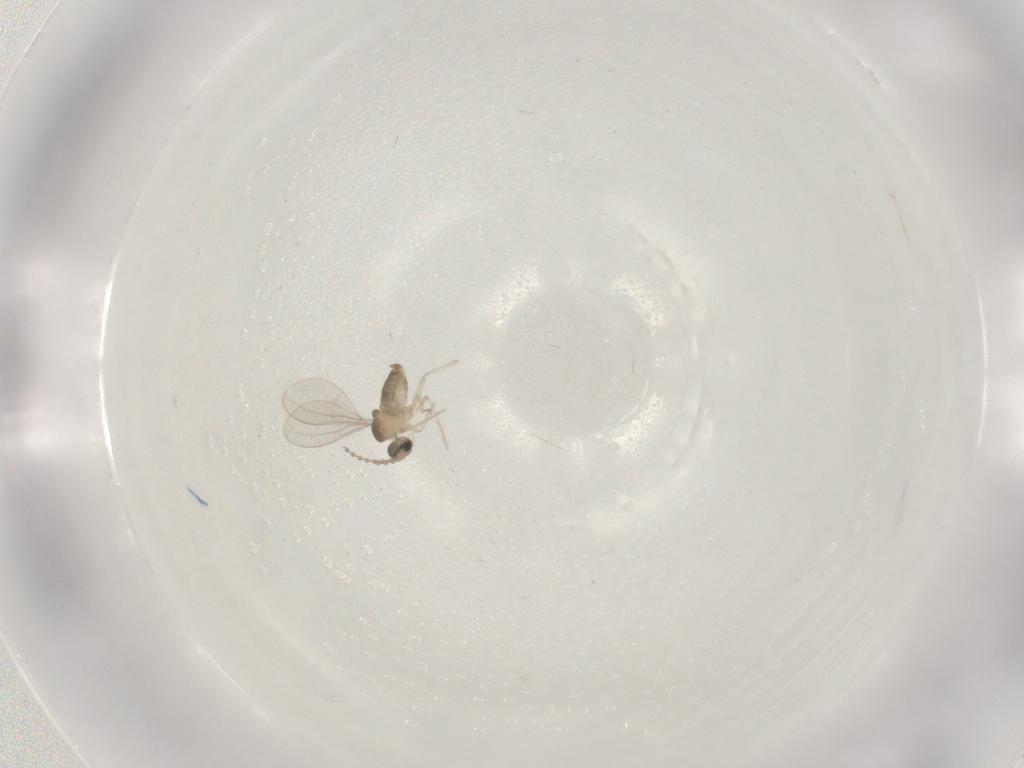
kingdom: Animalia
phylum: Arthropoda
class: Insecta
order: Diptera
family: Cecidomyiidae
